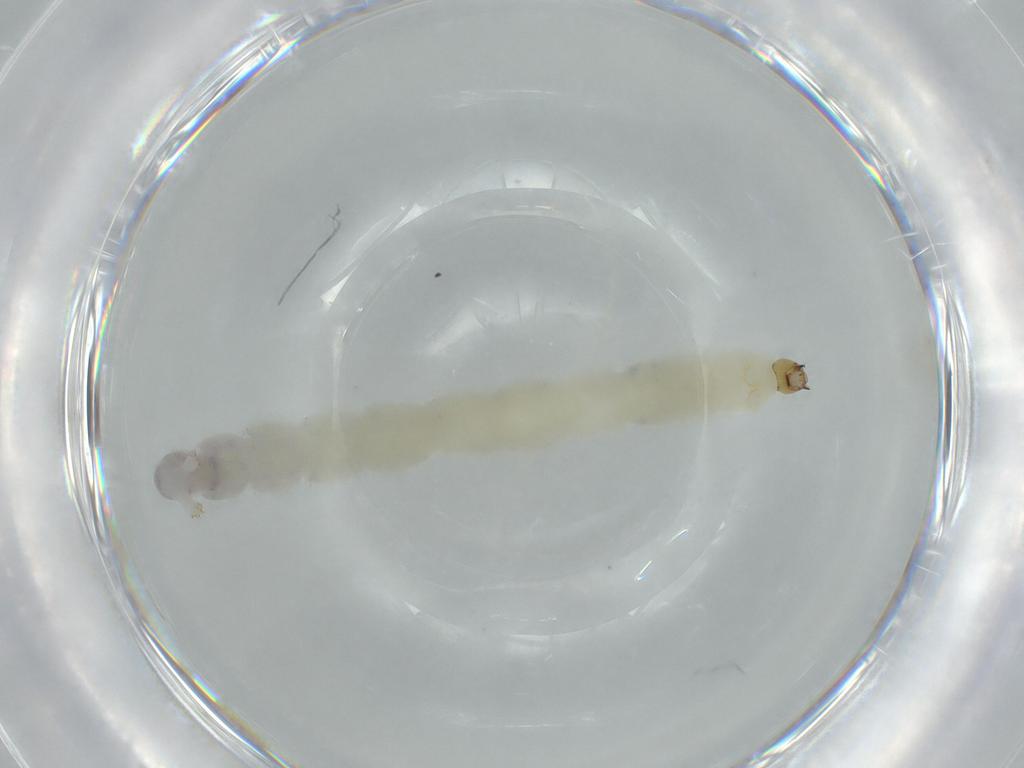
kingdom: Animalia
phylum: Arthropoda
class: Insecta
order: Diptera
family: Chironomidae
